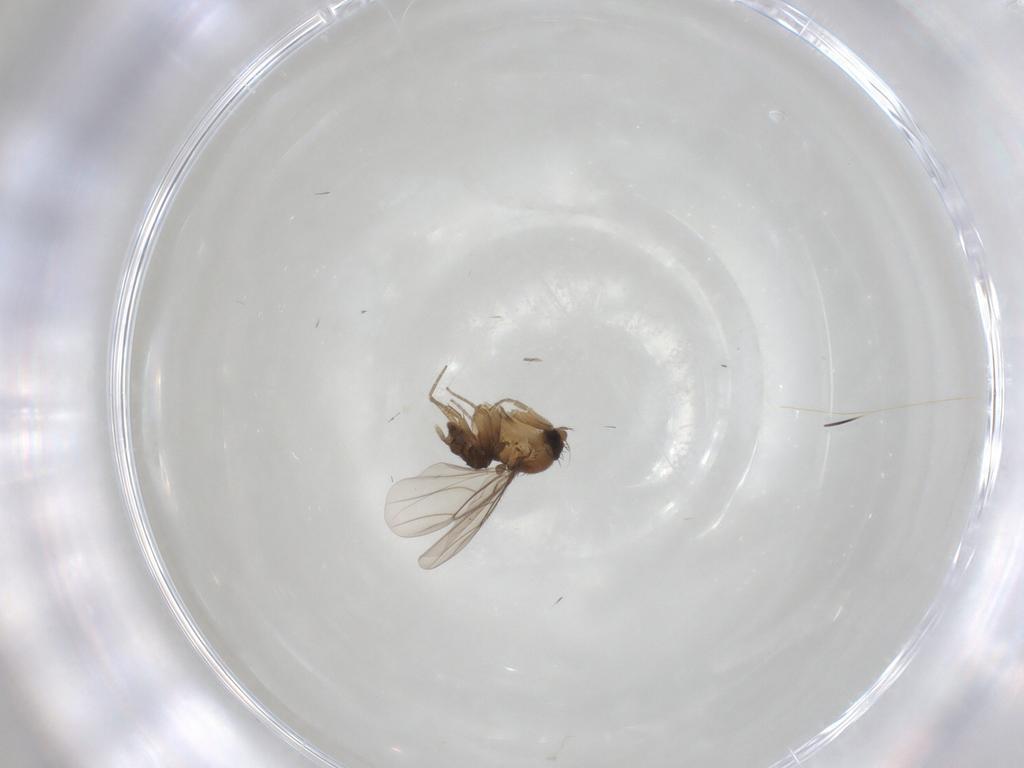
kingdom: Animalia
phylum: Arthropoda
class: Insecta
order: Diptera
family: Phoridae
